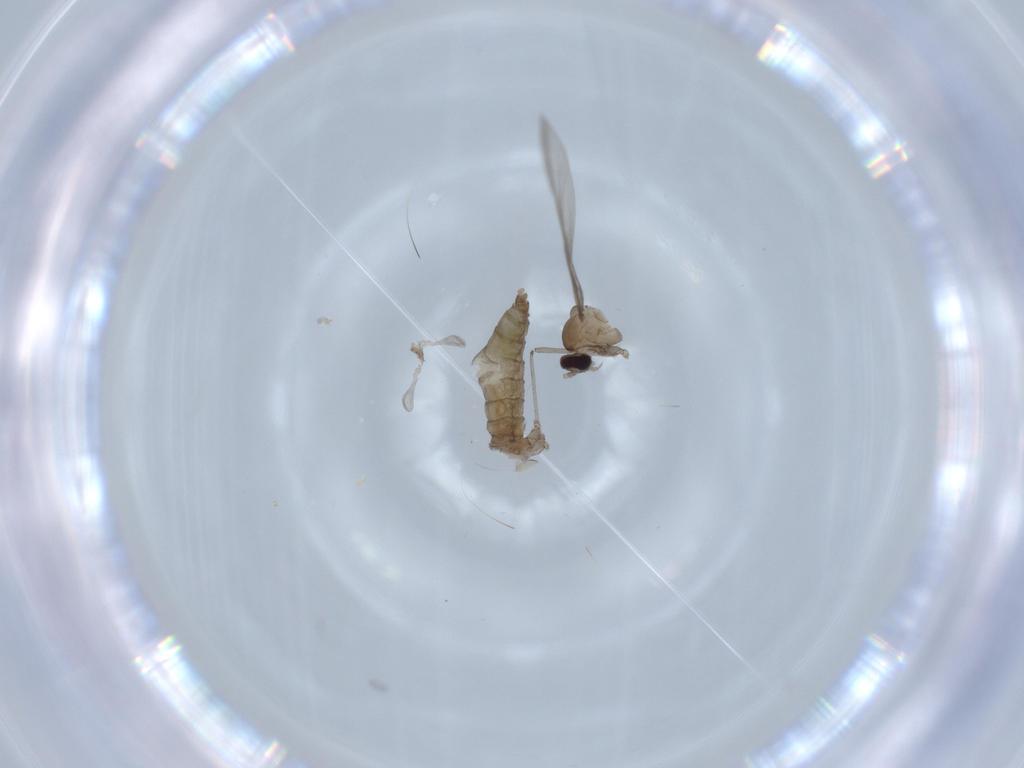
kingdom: Animalia
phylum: Arthropoda
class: Insecta
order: Diptera
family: Cecidomyiidae
